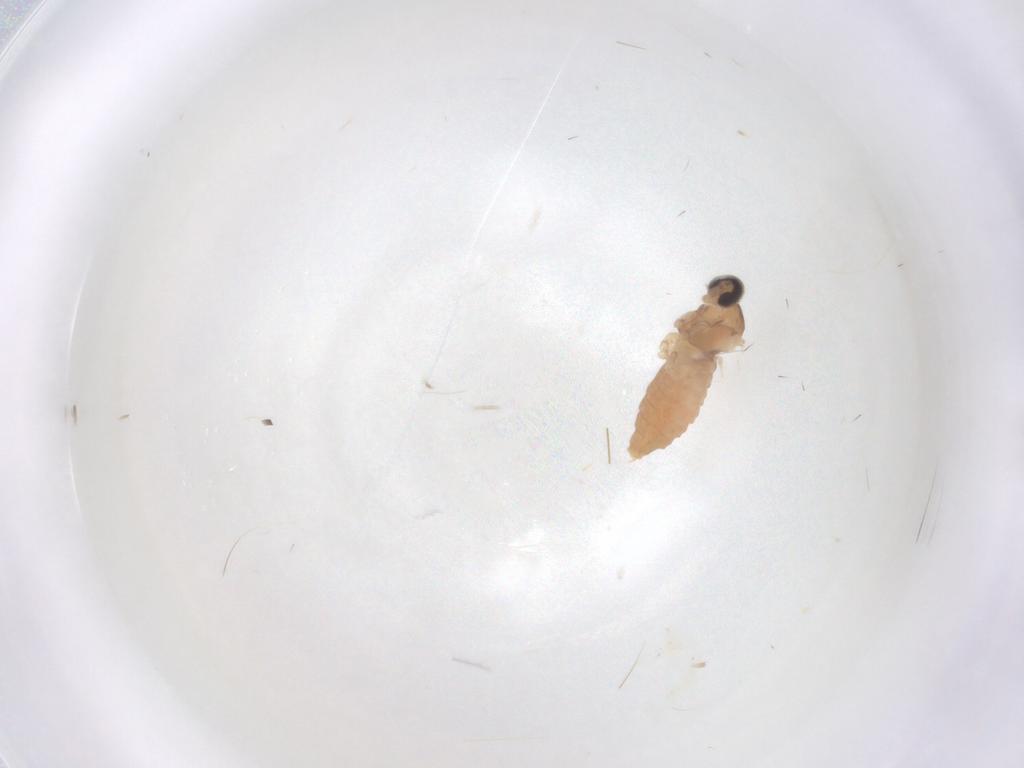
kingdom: Animalia
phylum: Arthropoda
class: Insecta
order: Diptera
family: Cecidomyiidae
